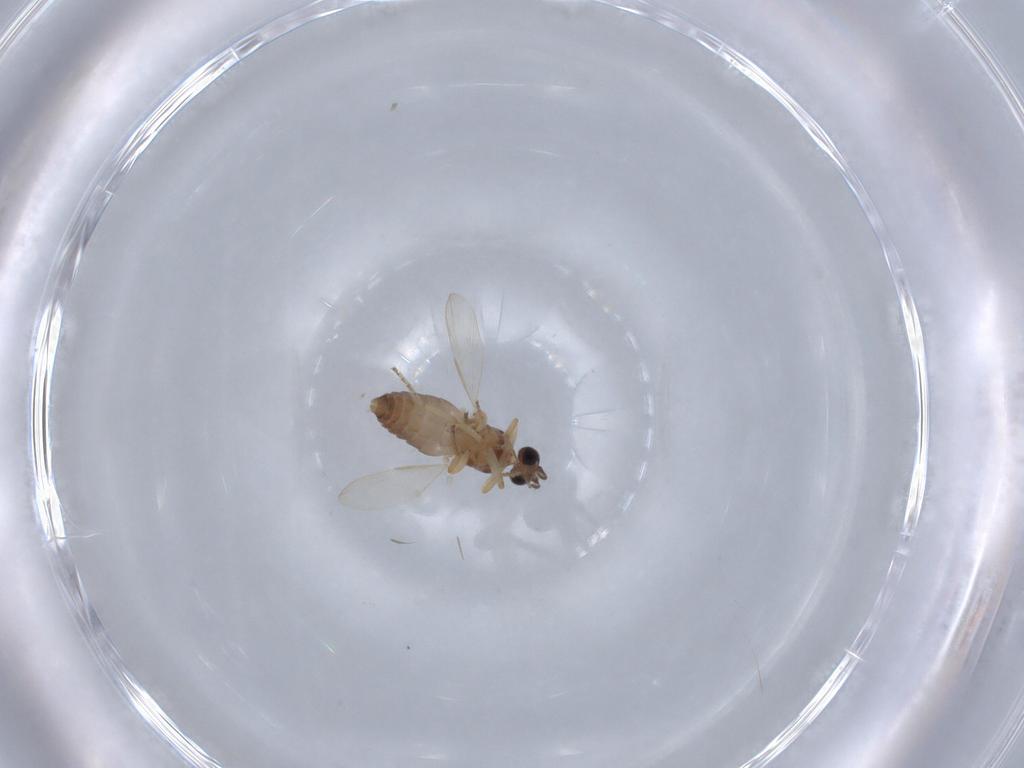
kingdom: Animalia
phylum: Arthropoda
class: Insecta
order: Diptera
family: Ceratopogonidae
